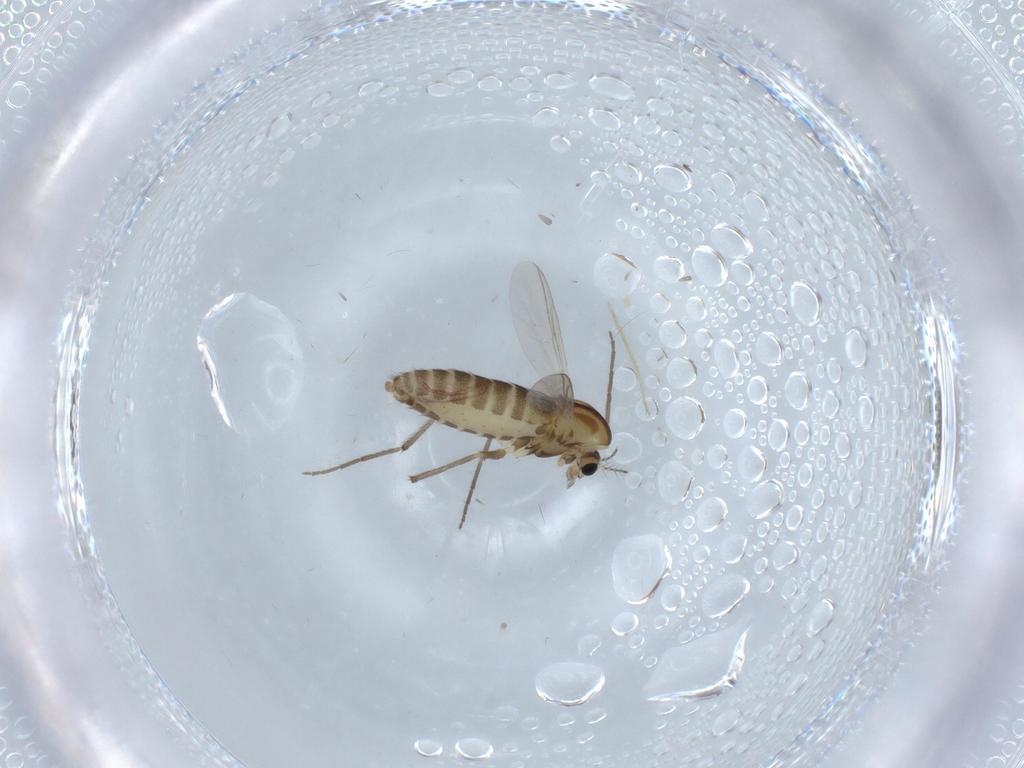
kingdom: Animalia
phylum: Arthropoda
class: Insecta
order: Diptera
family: Chironomidae
